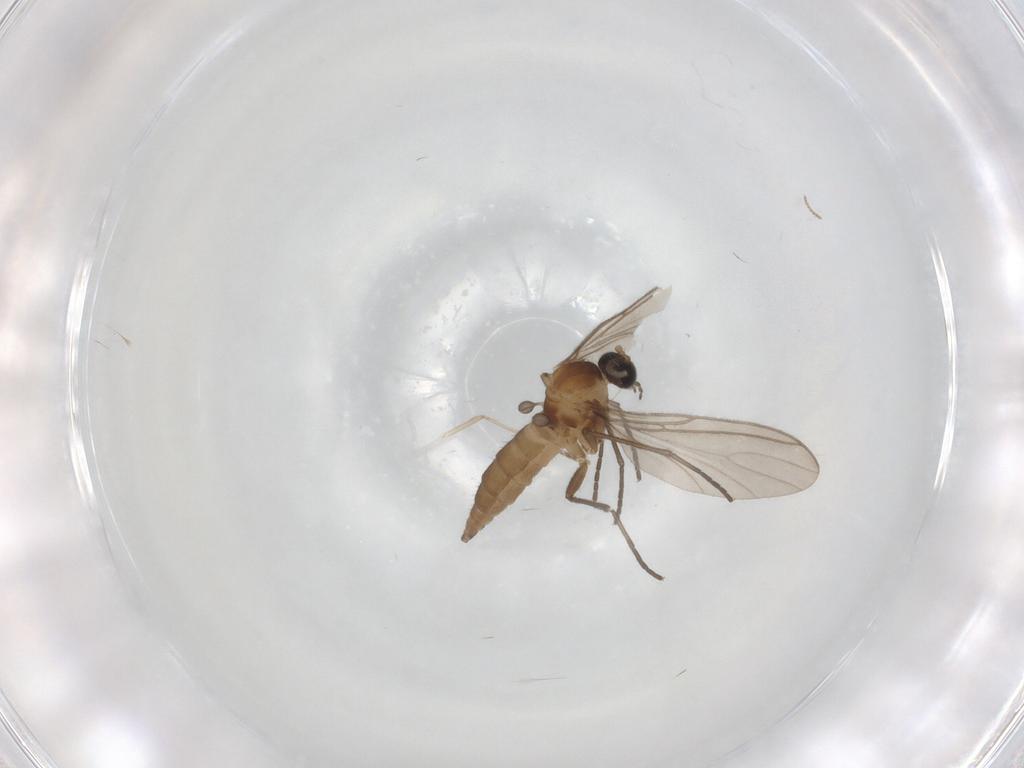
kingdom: Animalia
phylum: Arthropoda
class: Insecta
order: Diptera
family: Sciaridae
